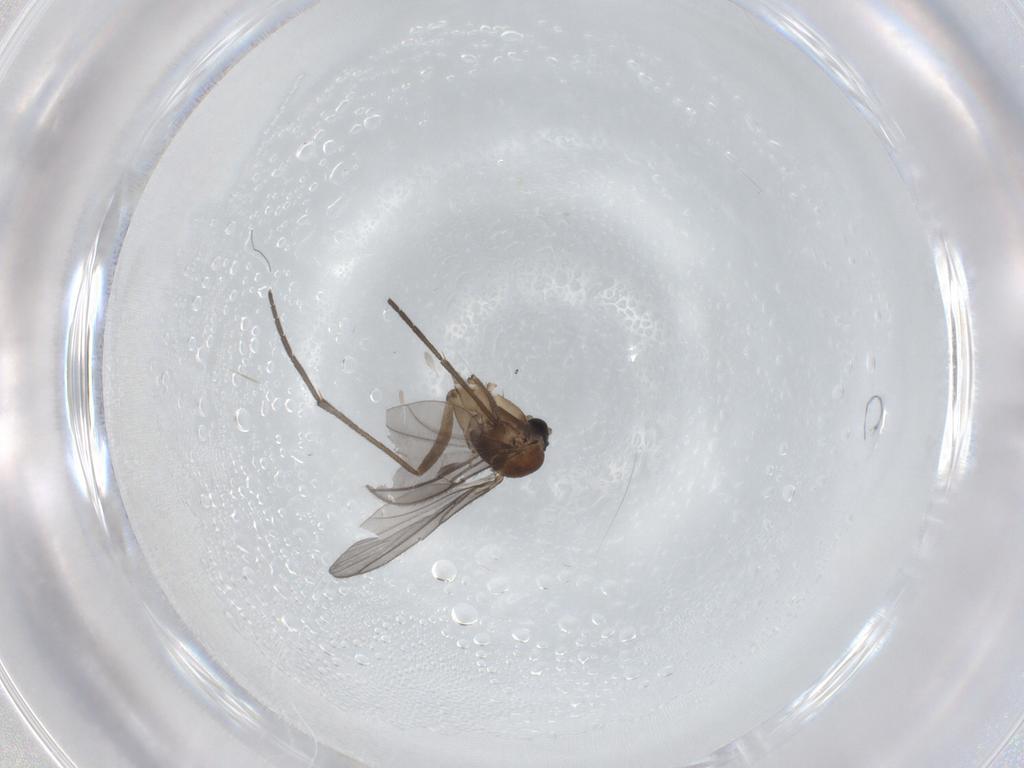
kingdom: Animalia
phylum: Arthropoda
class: Insecta
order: Diptera
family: Sciaridae
